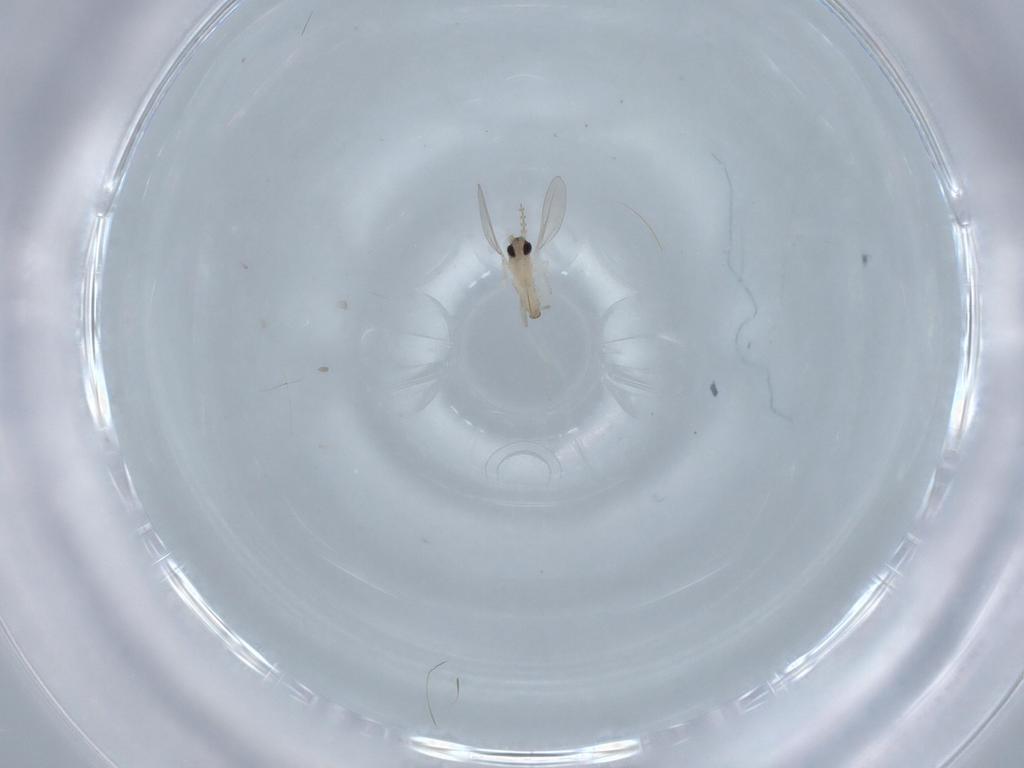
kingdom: Animalia
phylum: Arthropoda
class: Insecta
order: Diptera
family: Cecidomyiidae
